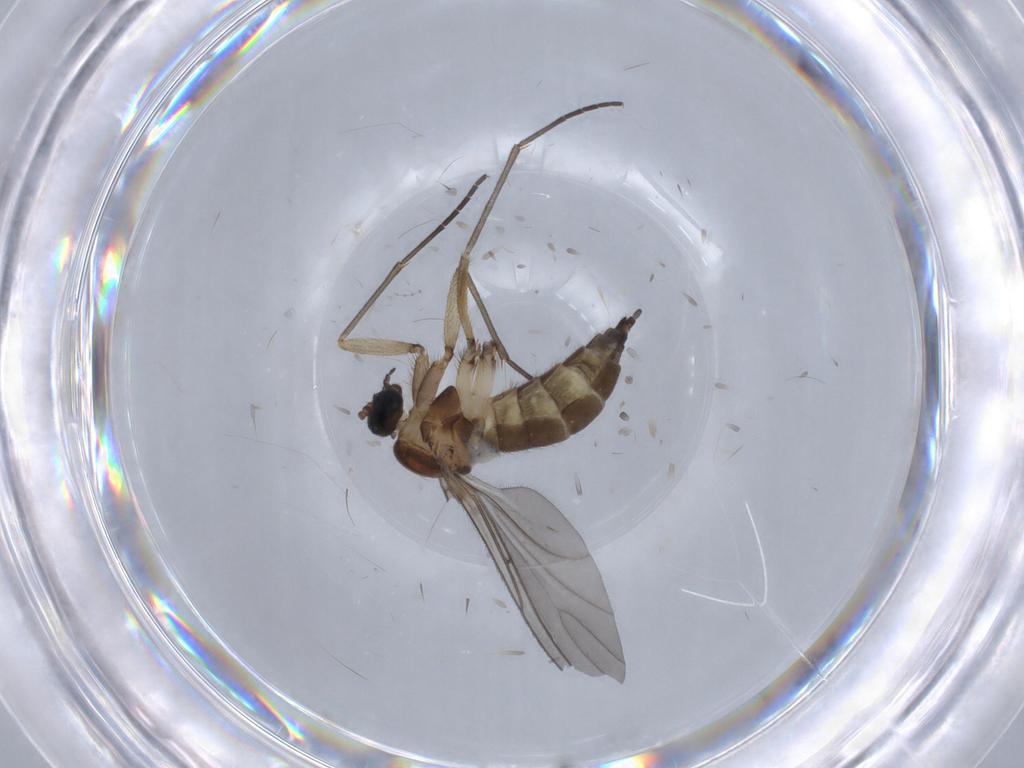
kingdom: Animalia
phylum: Arthropoda
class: Insecta
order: Diptera
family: Sciaridae
